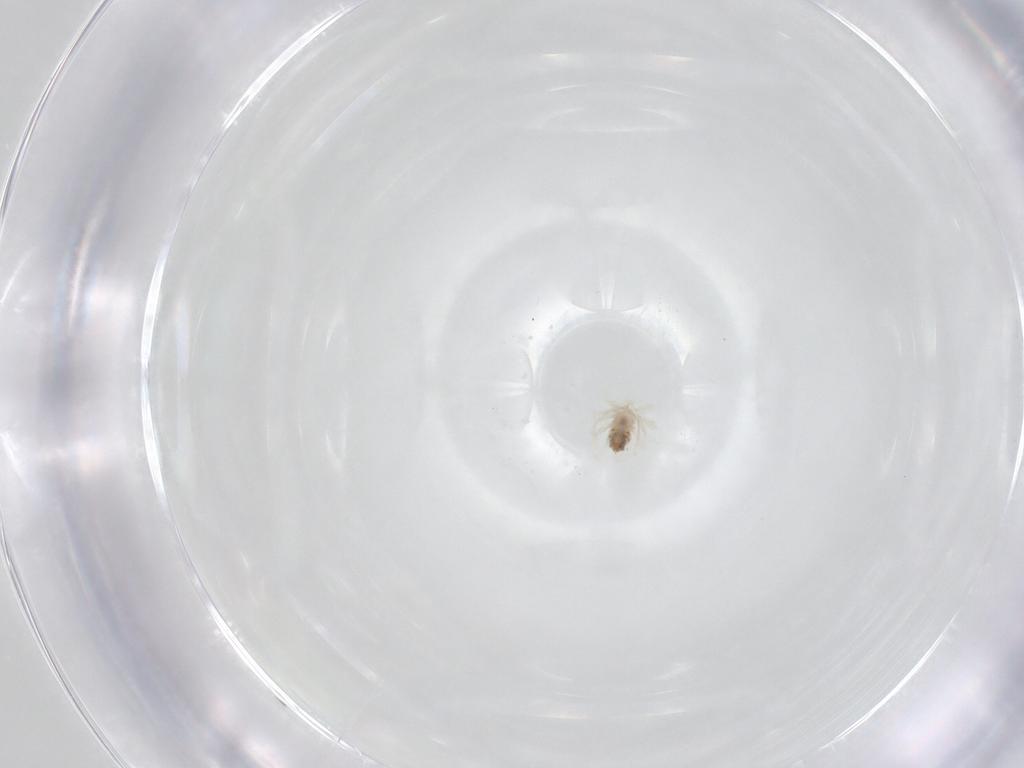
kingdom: Animalia
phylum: Arthropoda
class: Arachnida
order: Trombidiformes
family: Anystidae
